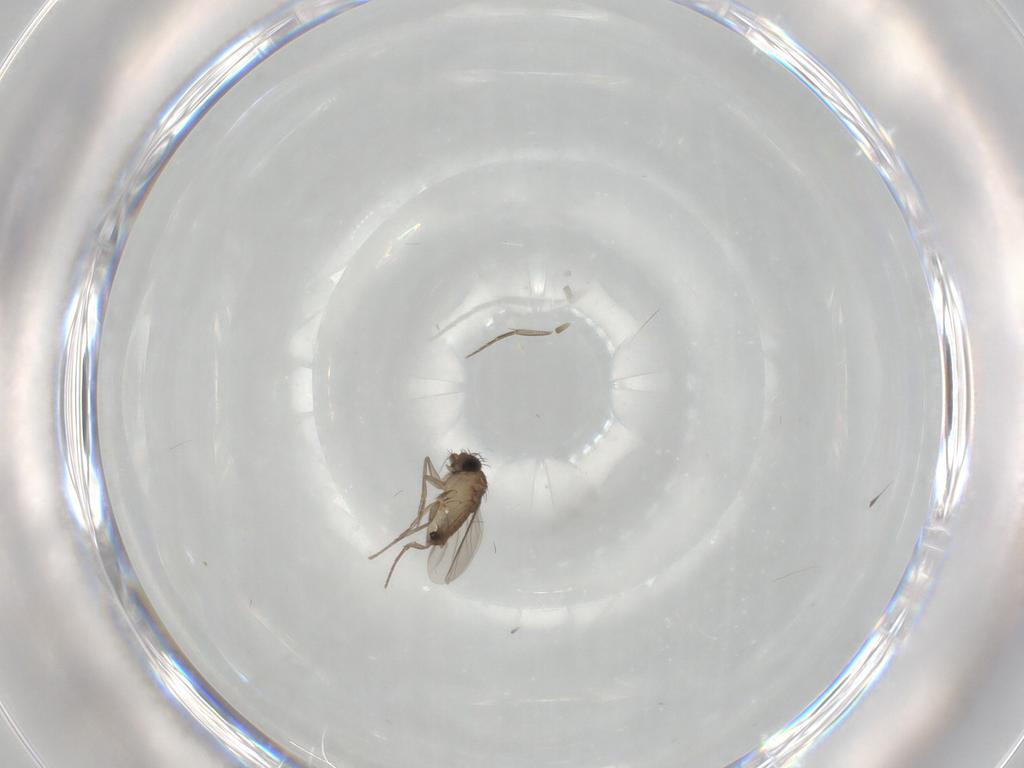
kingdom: Animalia
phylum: Arthropoda
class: Insecta
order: Diptera
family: Phoridae
